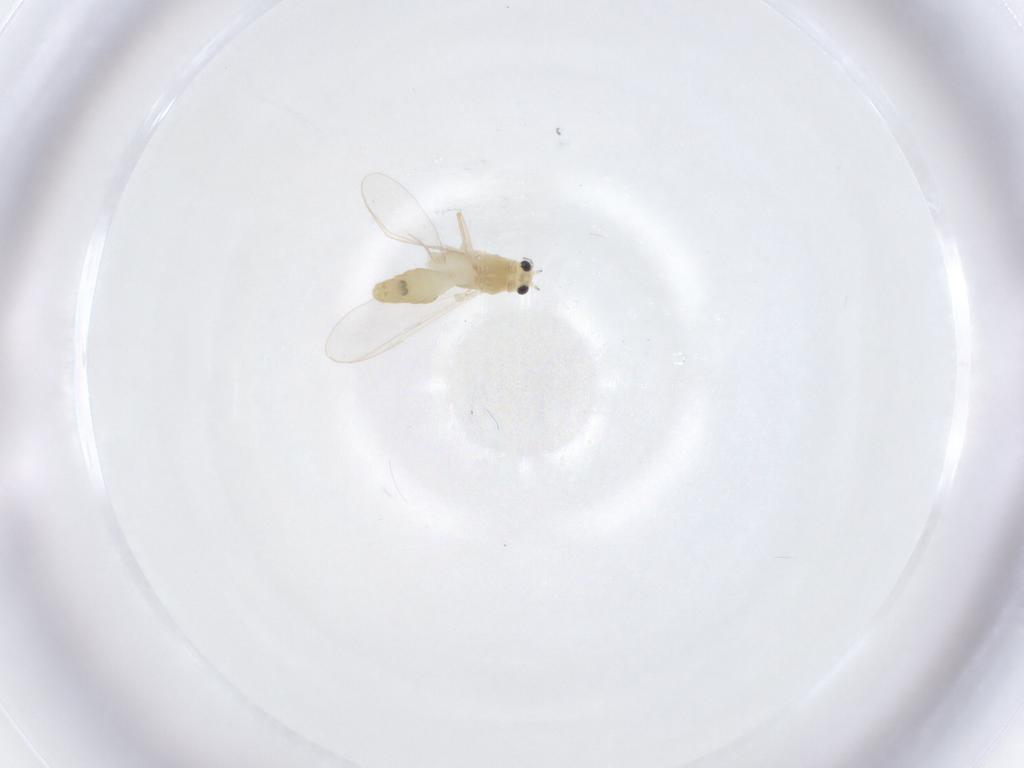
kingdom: Animalia
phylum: Arthropoda
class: Insecta
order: Diptera
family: Chironomidae
